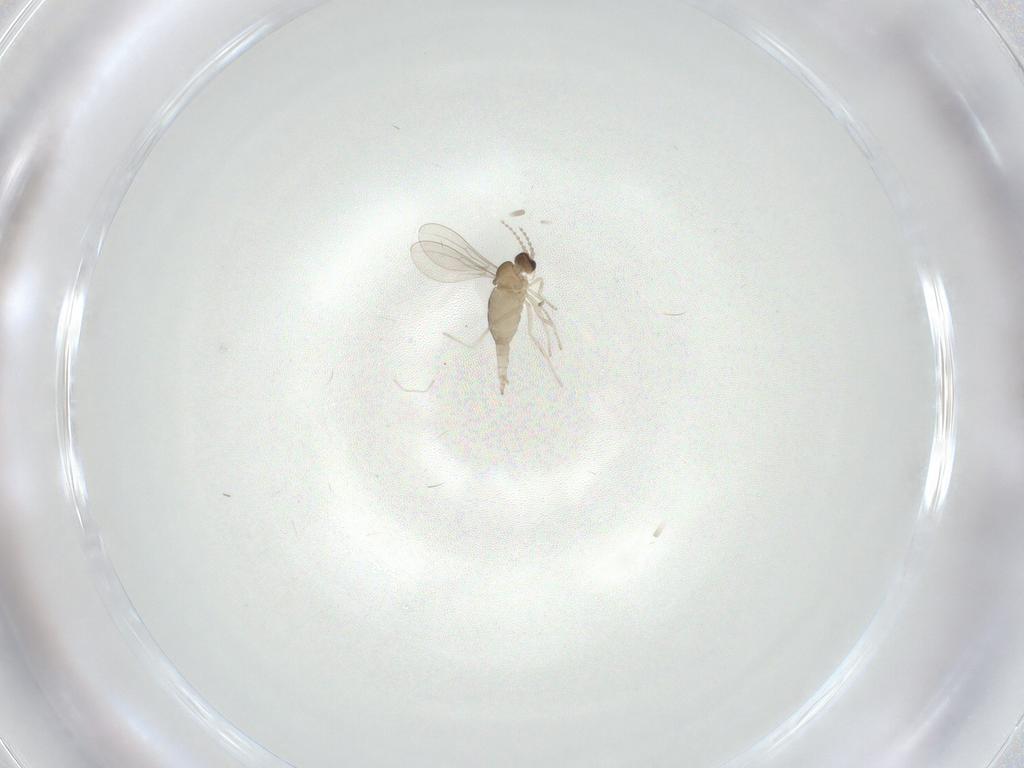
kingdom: Animalia
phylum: Arthropoda
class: Insecta
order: Diptera
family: Cecidomyiidae
